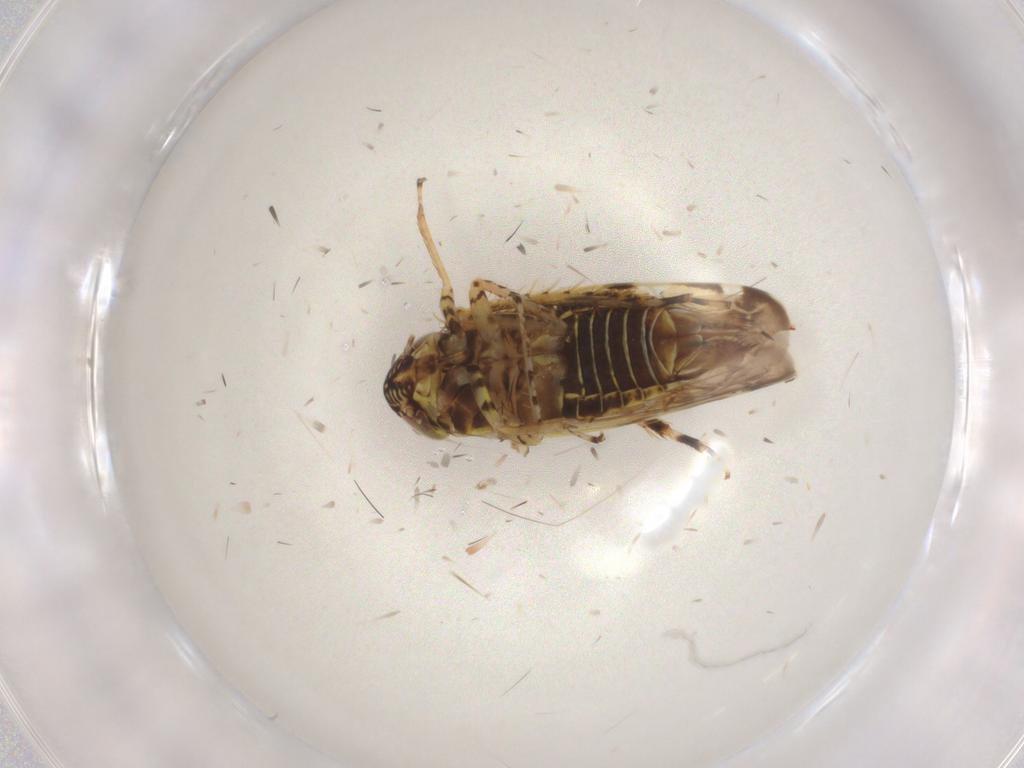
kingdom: Animalia
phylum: Arthropoda
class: Insecta
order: Hemiptera
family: Cicadellidae
